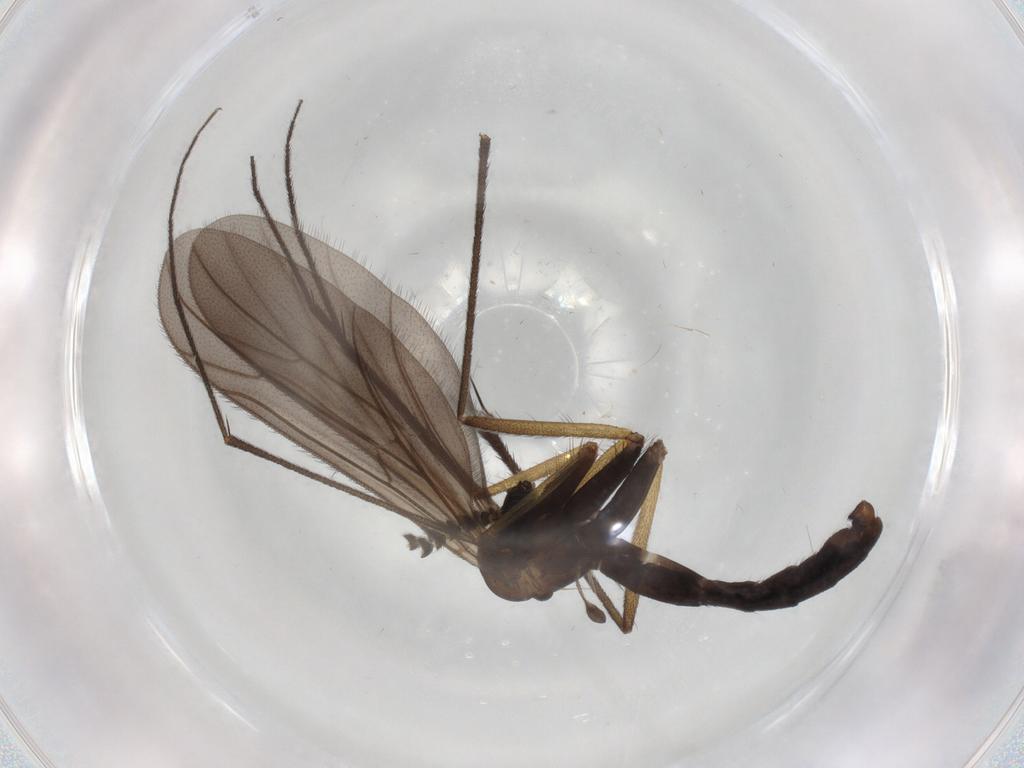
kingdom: Animalia
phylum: Arthropoda
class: Insecta
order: Diptera
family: Psychodidae
